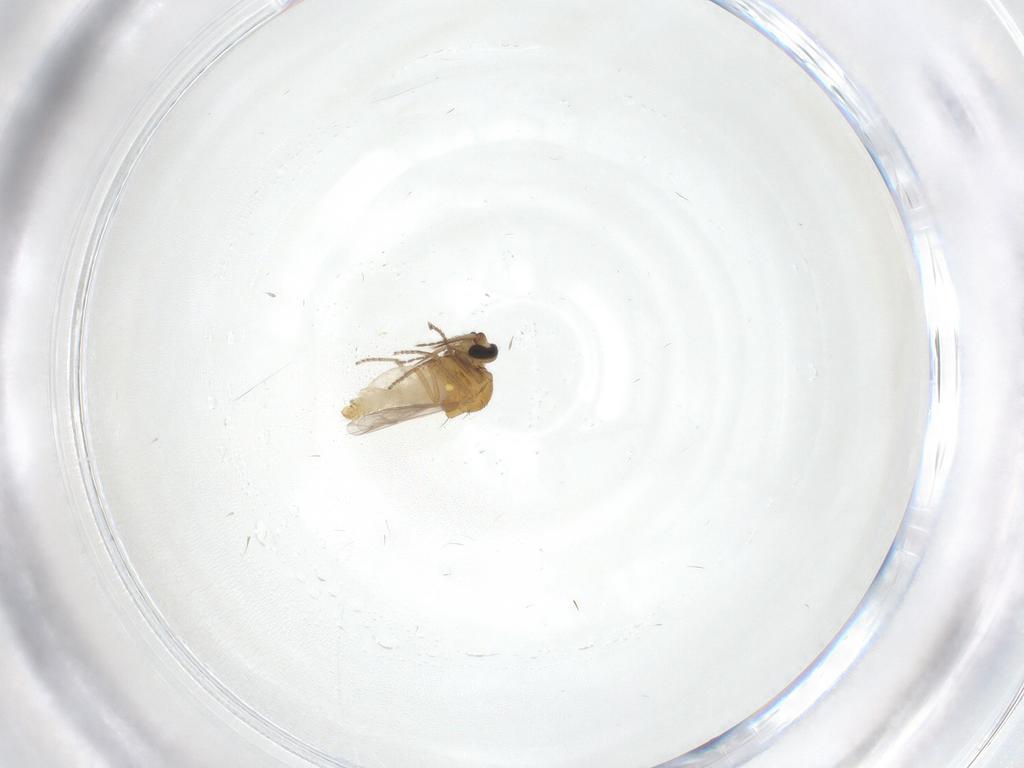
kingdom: Animalia
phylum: Arthropoda
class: Insecta
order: Diptera
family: Ceratopogonidae
